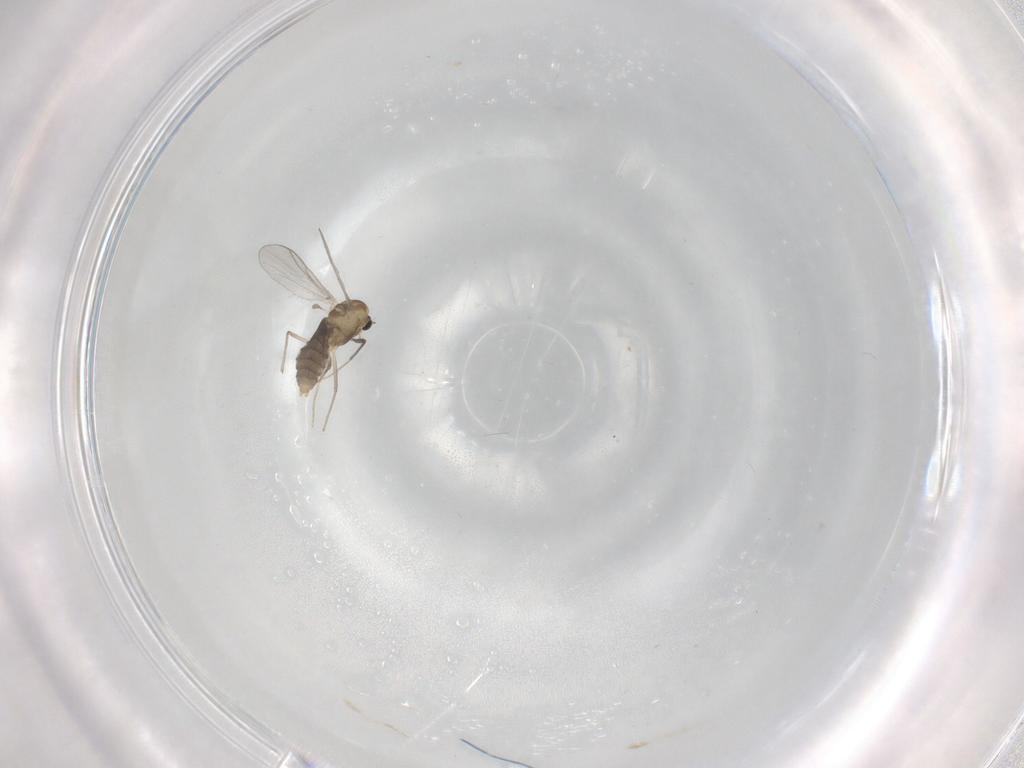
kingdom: Animalia
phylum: Arthropoda
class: Insecta
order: Diptera
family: Chironomidae
